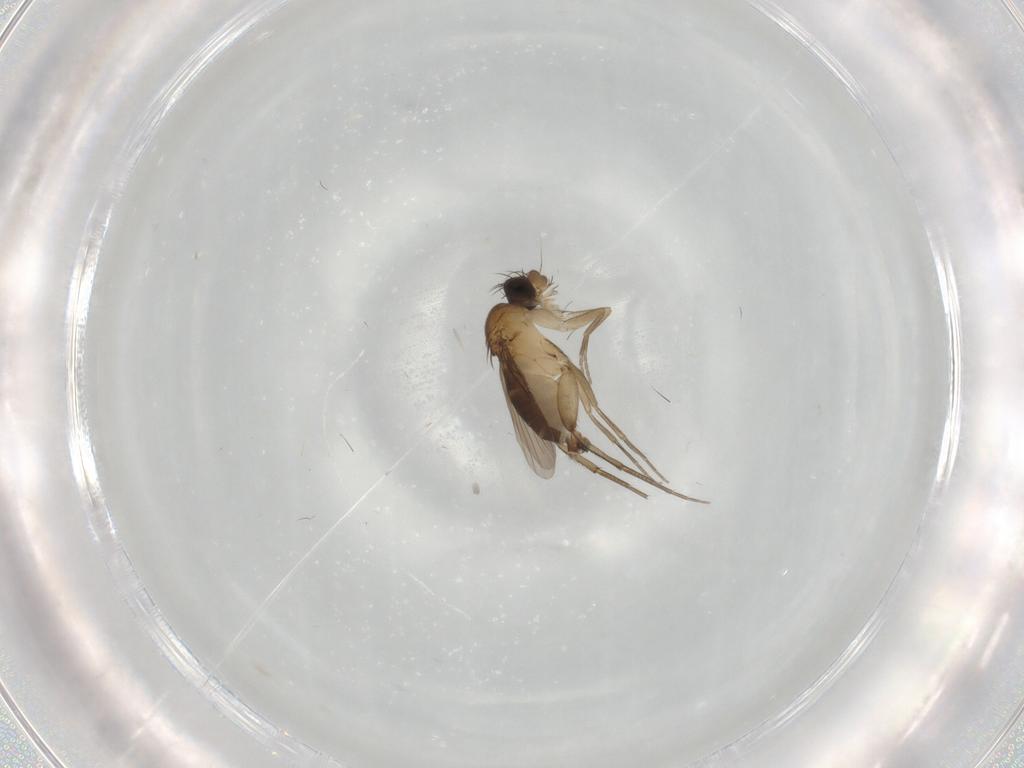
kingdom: Animalia
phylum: Arthropoda
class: Insecta
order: Diptera
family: Phoridae
